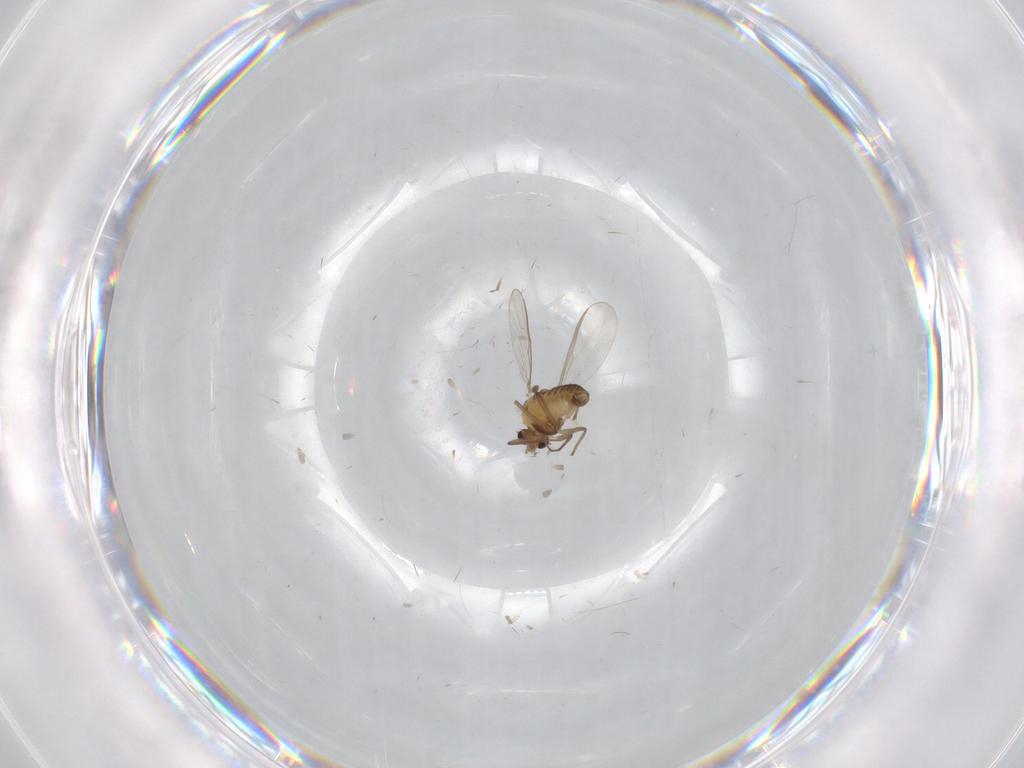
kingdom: Animalia
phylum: Arthropoda
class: Insecta
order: Diptera
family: Chironomidae
